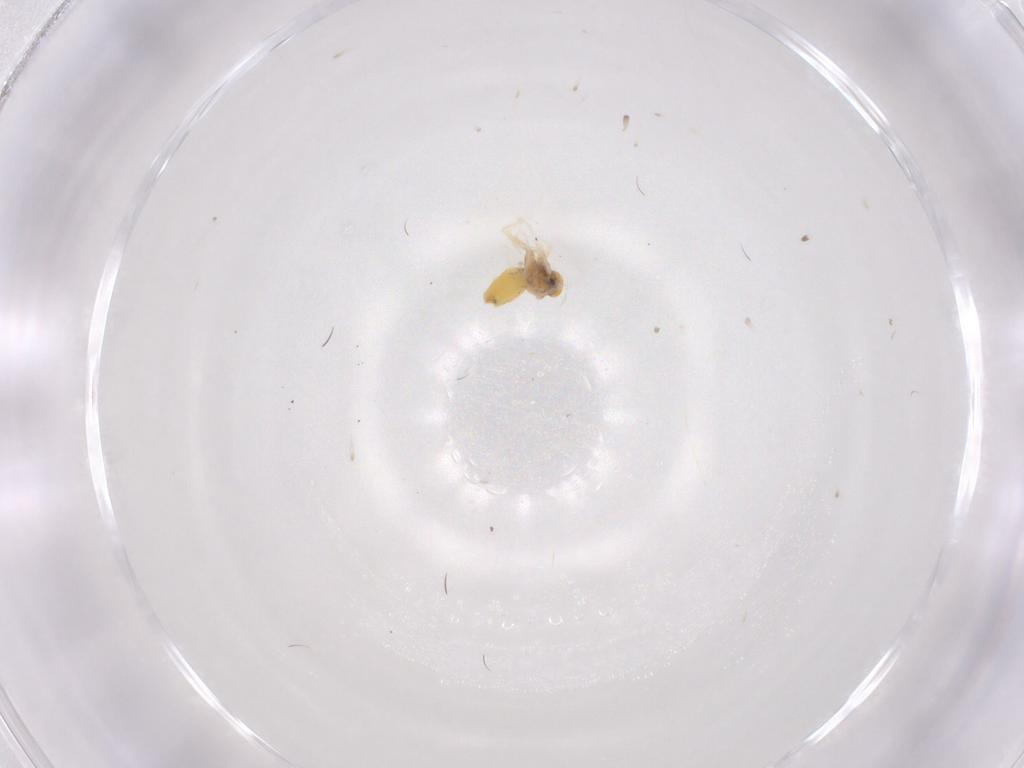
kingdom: Animalia
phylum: Arthropoda
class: Insecta
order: Hemiptera
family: Aleyrodidae
